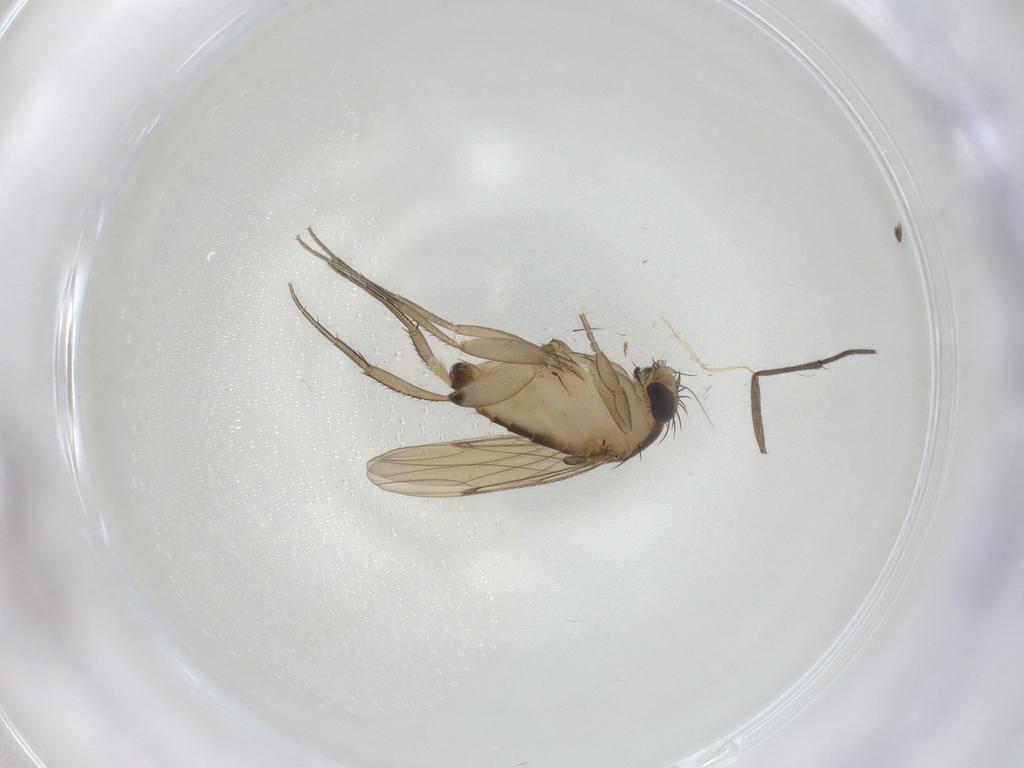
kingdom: Animalia
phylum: Arthropoda
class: Insecta
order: Diptera
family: Phoridae
